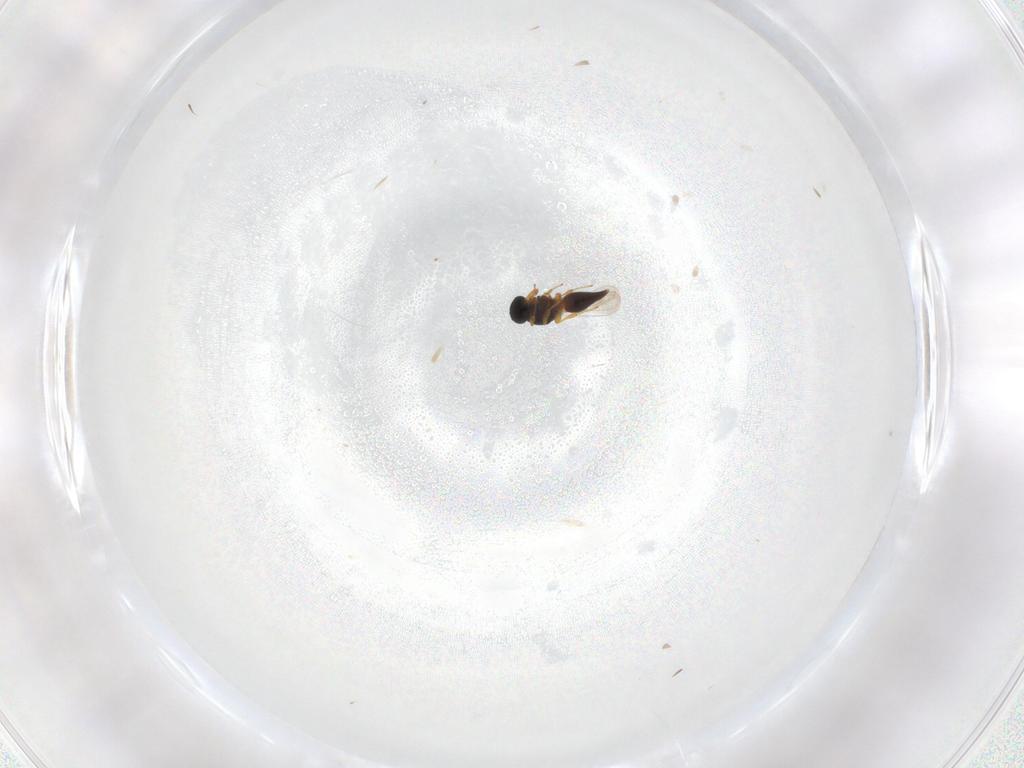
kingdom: Animalia
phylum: Arthropoda
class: Insecta
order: Hymenoptera
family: Platygastridae
